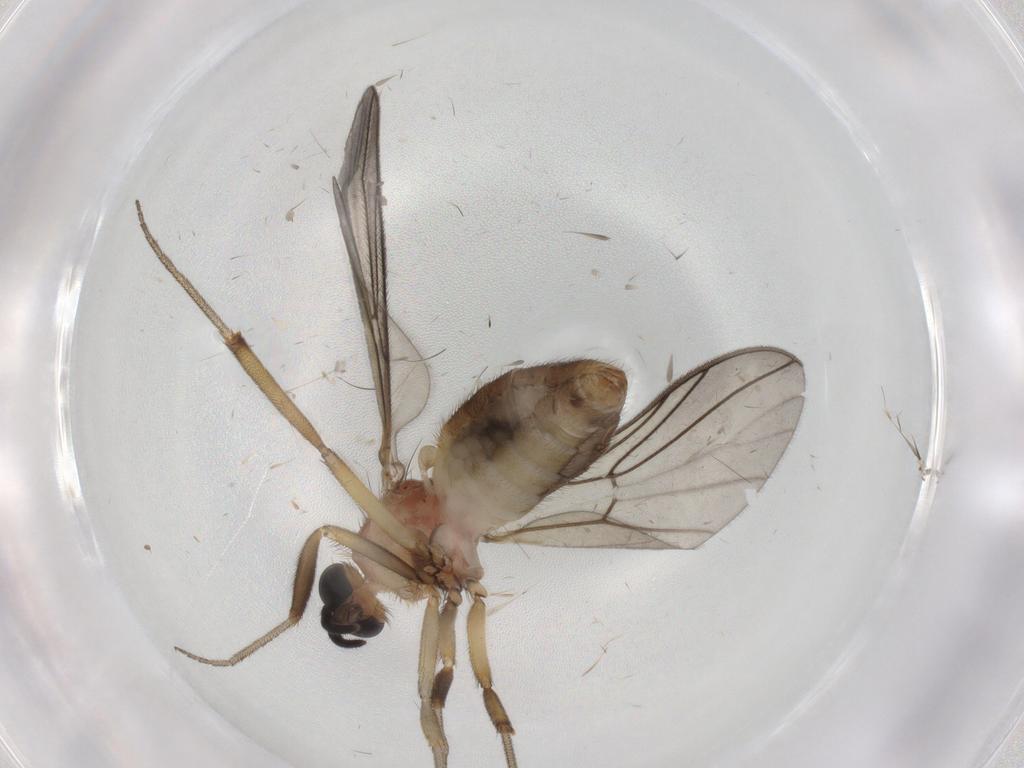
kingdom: Animalia
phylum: Arthropoda
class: Insecta
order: Diptera
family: Anisopodidae
